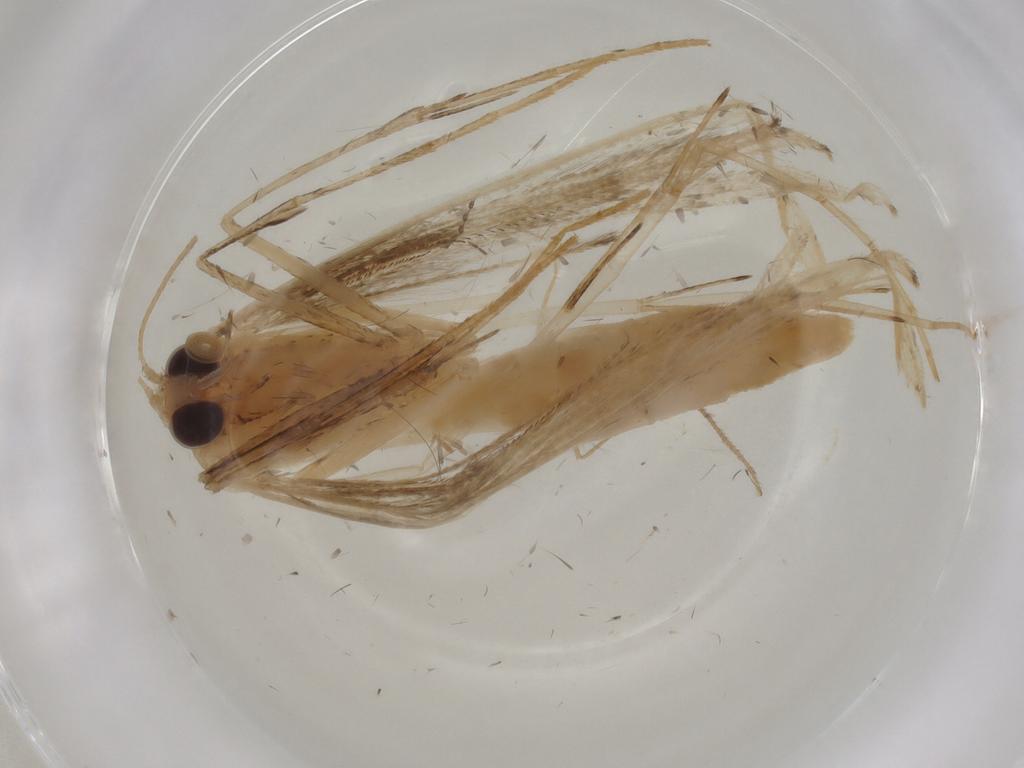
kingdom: Animalia
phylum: Arthropoda
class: Insecta
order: Lepidoptera
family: Erebidae
